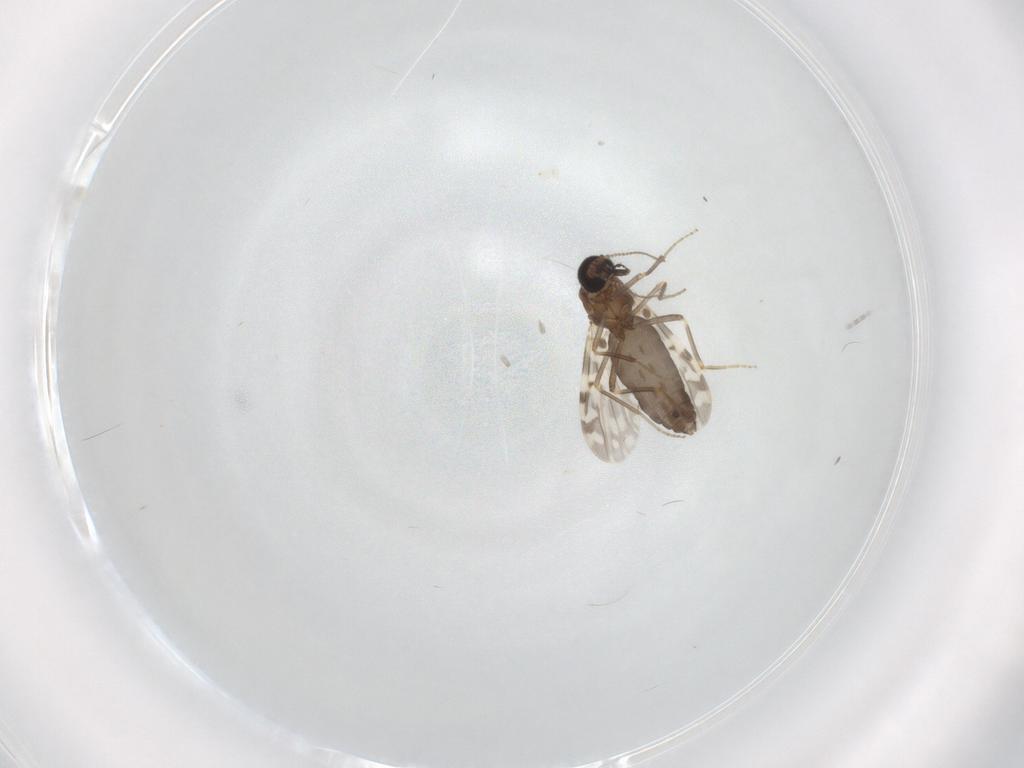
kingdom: Animalia
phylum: Arthropoda
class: Insecta
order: Diptera
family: Ceratopogonidae
